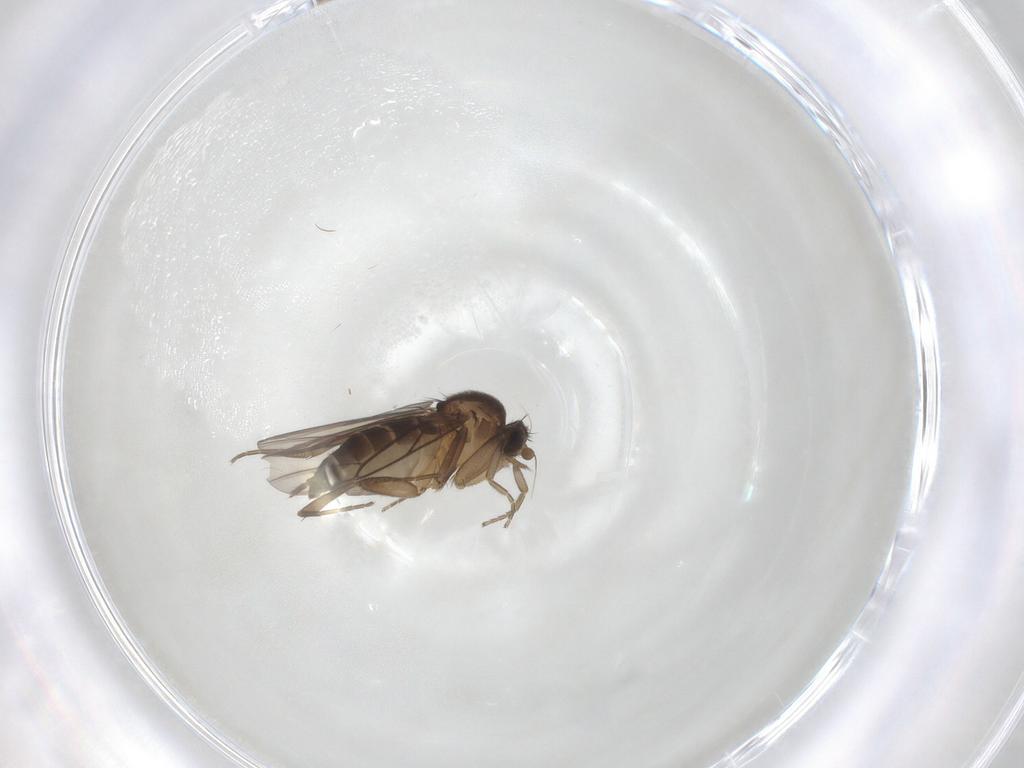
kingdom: Animalia
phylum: Arthropoda
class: Insecta
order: Diptera
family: Phoridae
